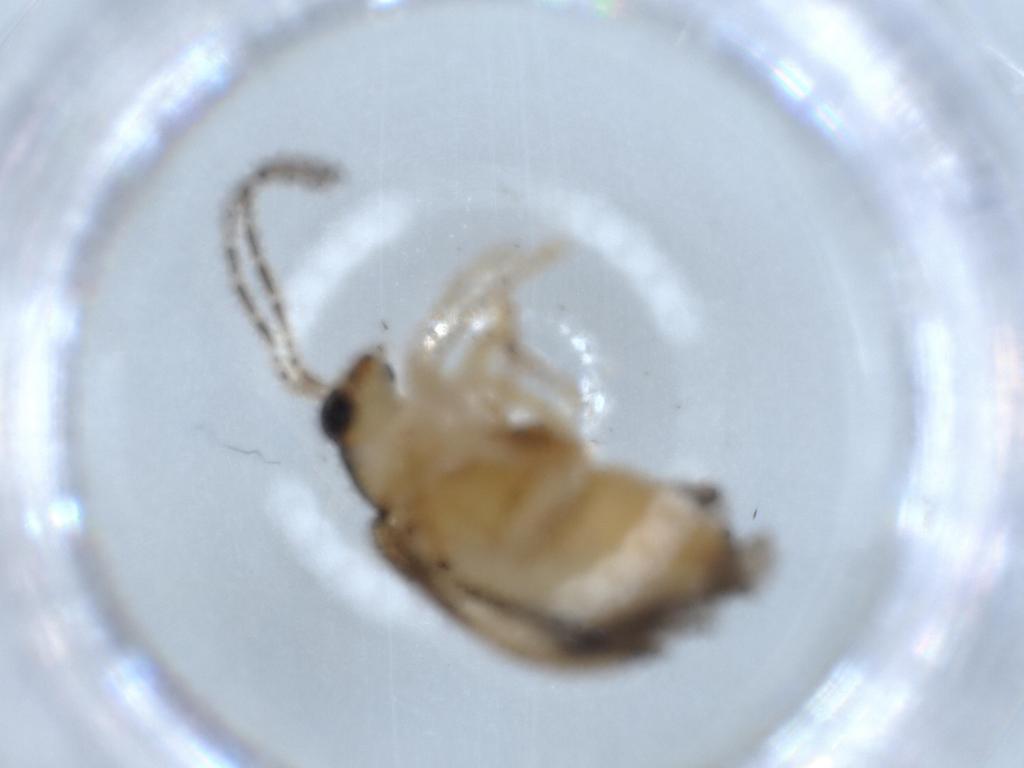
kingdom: Animalia
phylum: Arthropoda
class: Insecta
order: Coleoptera
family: Chrysomelidae
